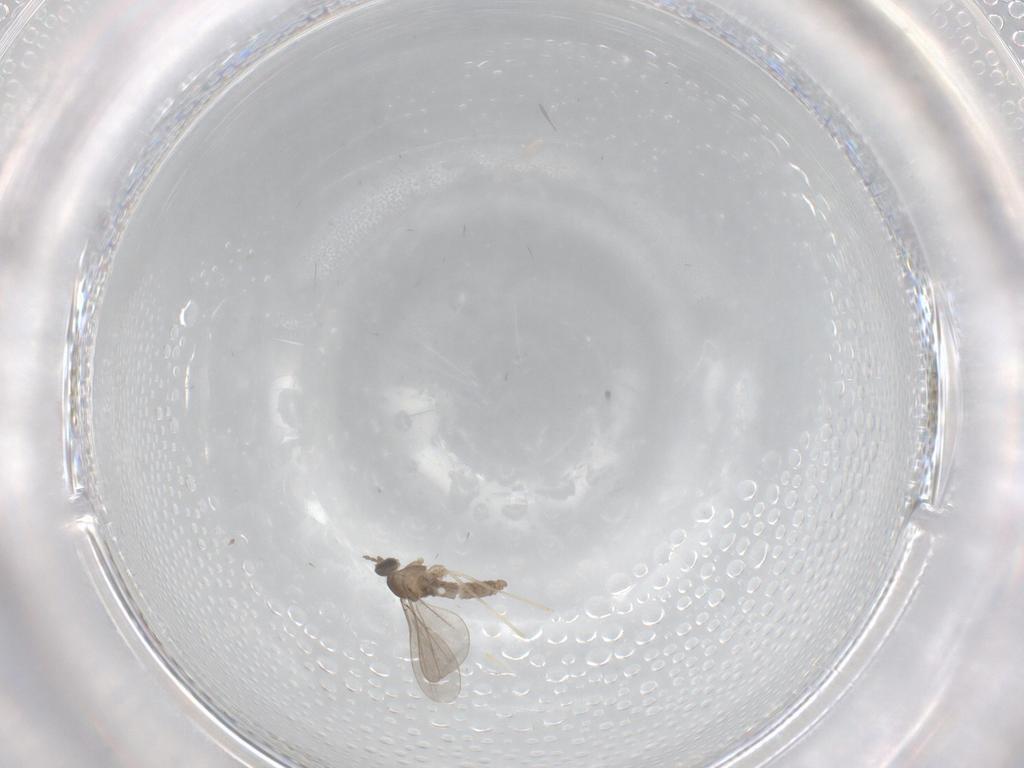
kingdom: Animalia
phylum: Arthropoda
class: Insecta
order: Diptera
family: Cecidomyiidae
